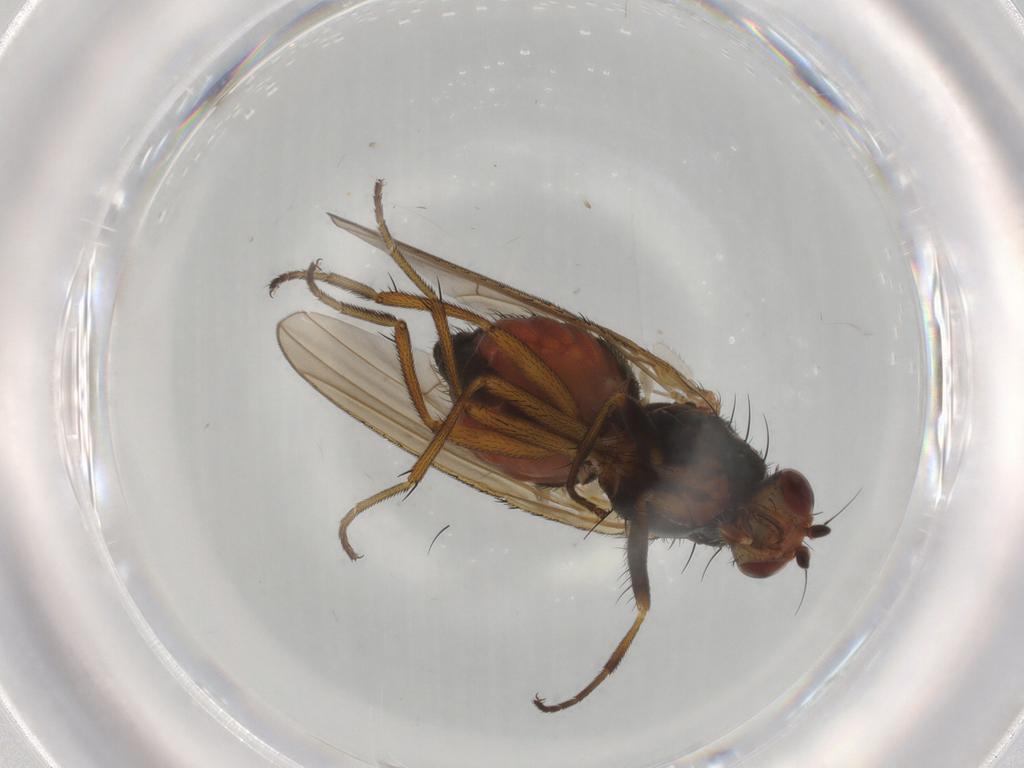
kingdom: Animalia
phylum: Arthropoda
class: Insecta
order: Diptera
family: Heleomyzidae
